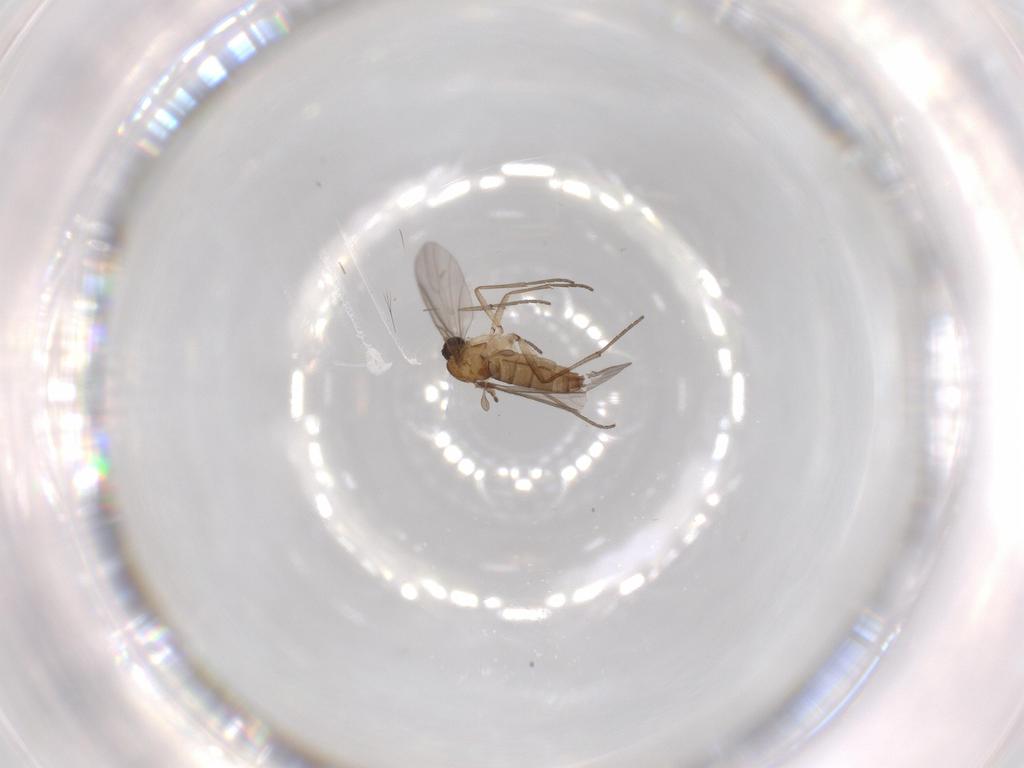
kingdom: Animalia
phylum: Arthropoda
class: Insecta
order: Diptera
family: Sciaridae
